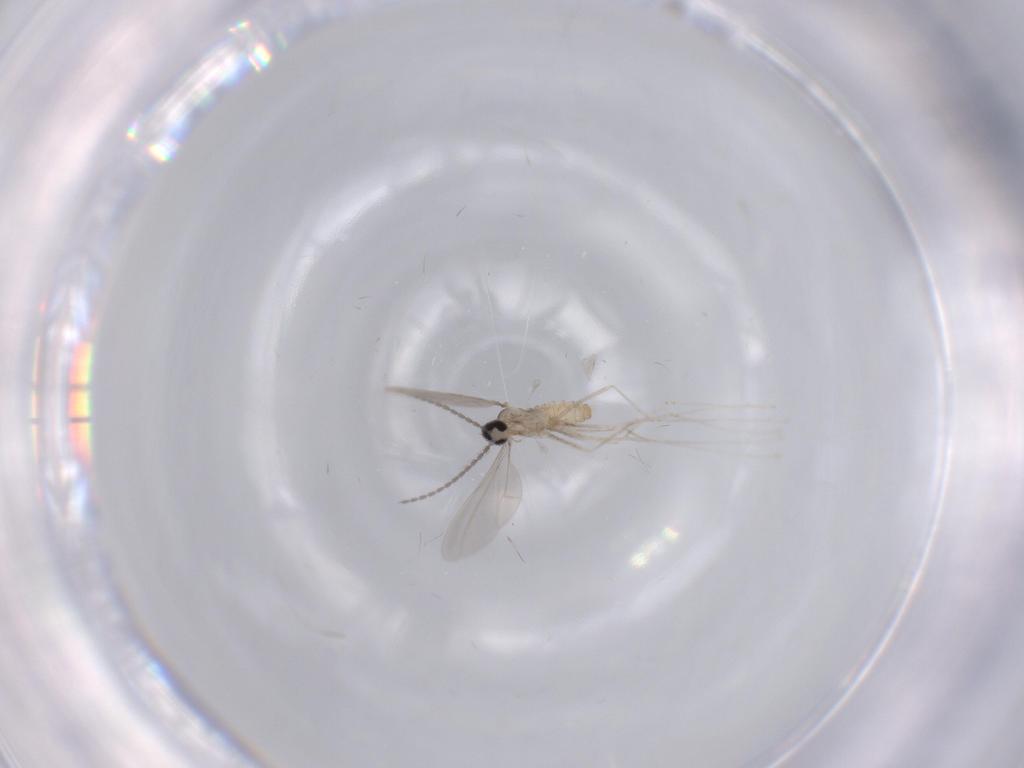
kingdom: Animalia
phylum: Arthropoda
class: Insecta
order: Diptera
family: Cecidomyiidae
